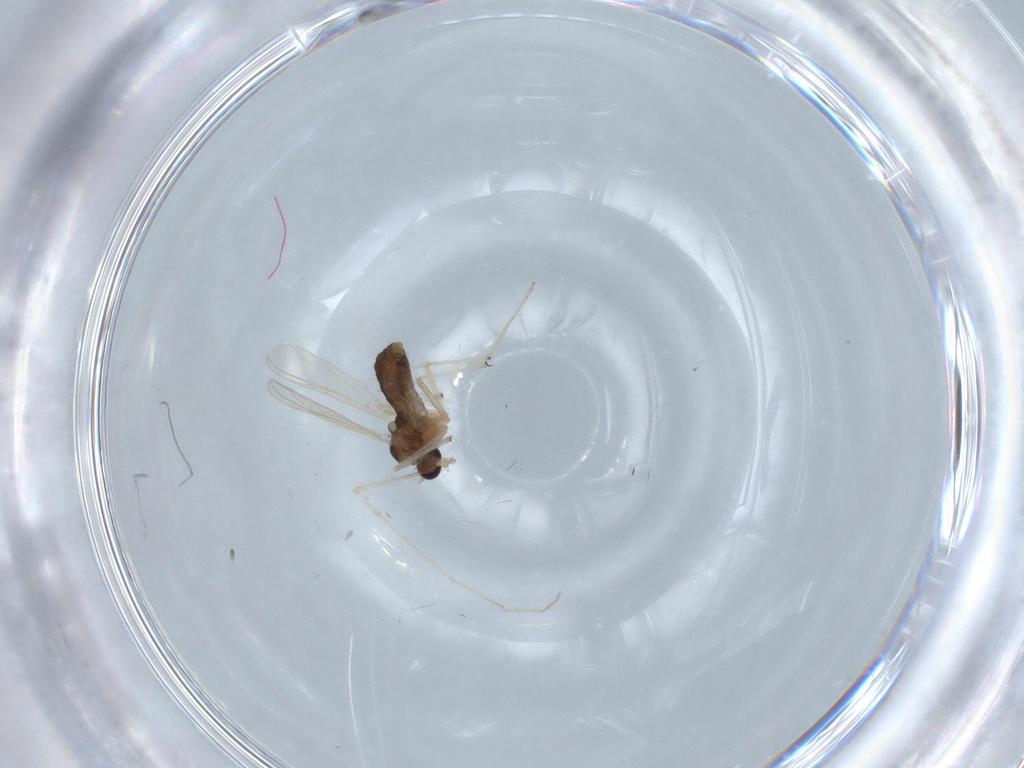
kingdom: Animalia
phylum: Arthropoda
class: Insecta
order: Diptera
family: Chironomidae
